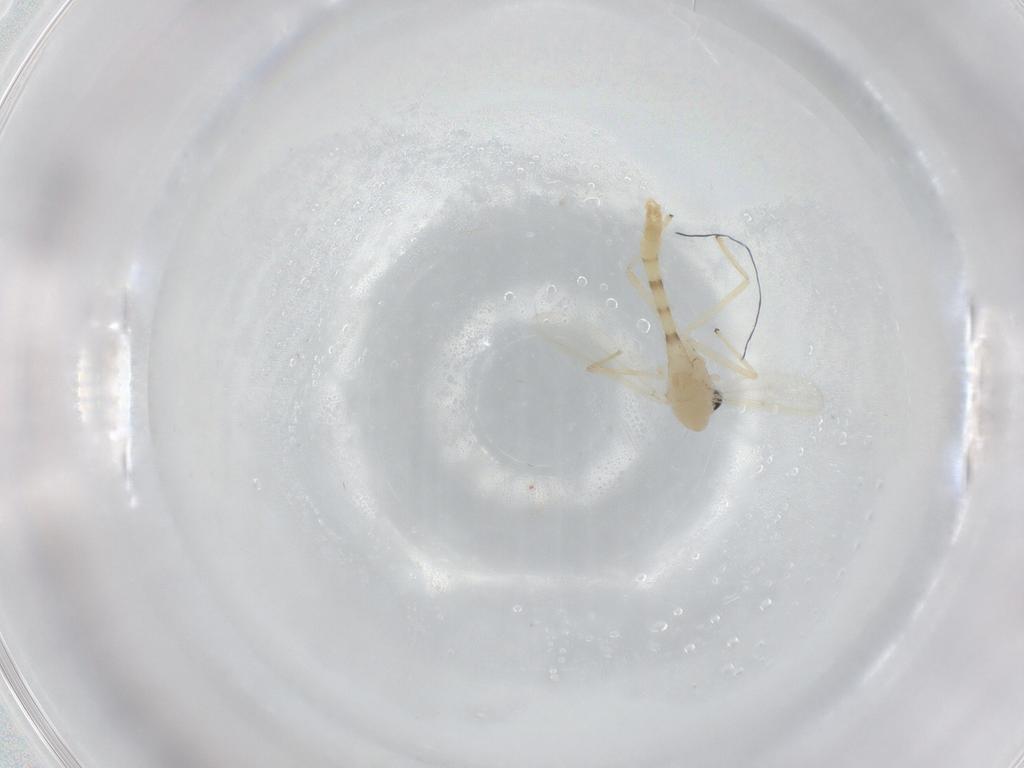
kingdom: Animalia
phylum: Arthropoda
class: Insecta
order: Diptera
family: Chironomidae
